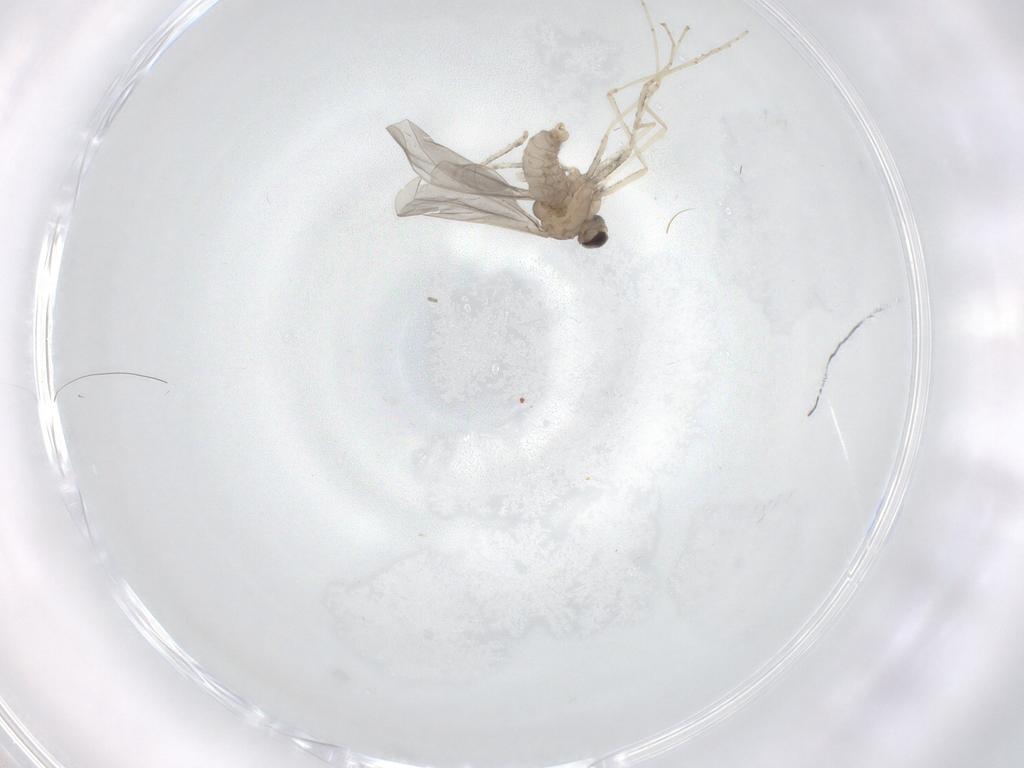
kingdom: Animalia
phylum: Arthropoda
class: Insecta
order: Diptera
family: Cecidomyiidae
